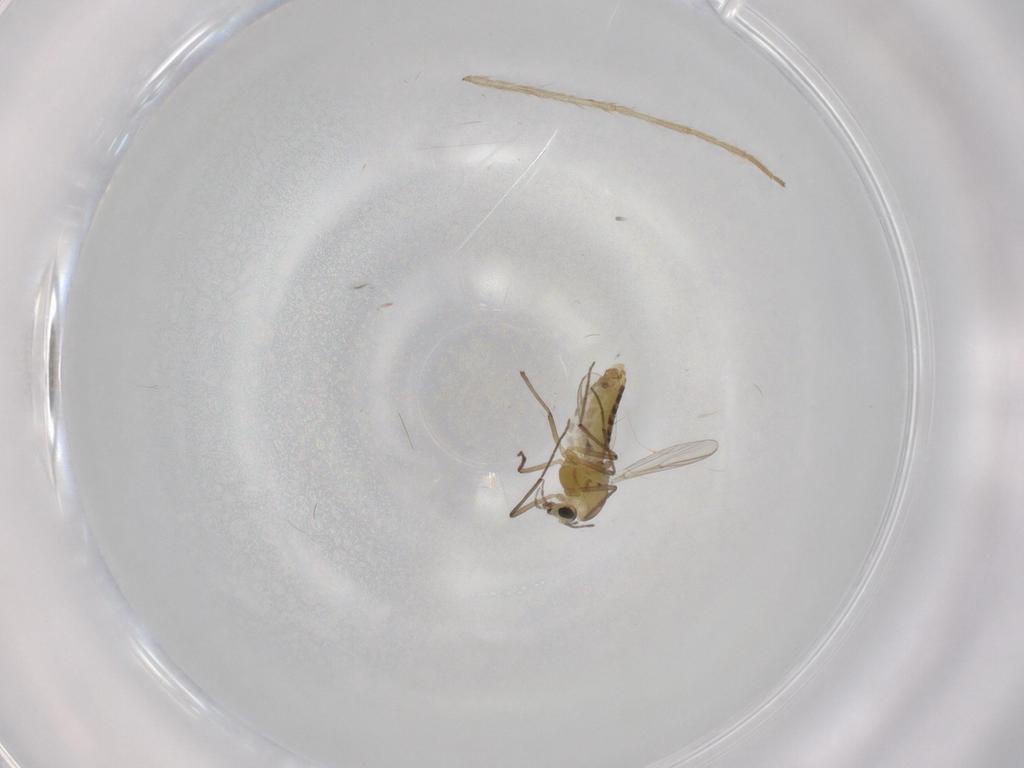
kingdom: Animalia
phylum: Arthropoda
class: Insecta
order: Diptera
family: Chironomidae
